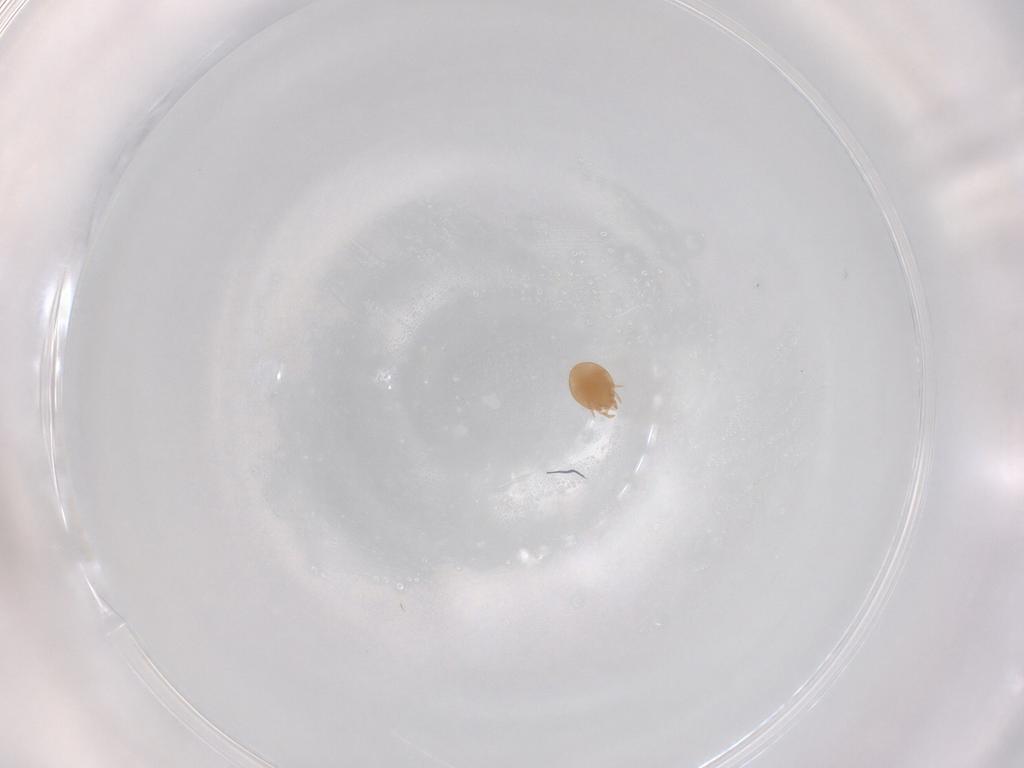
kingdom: Animalia
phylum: Arthropoda
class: Arachnida
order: Mesostigmata
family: Trematuridae
